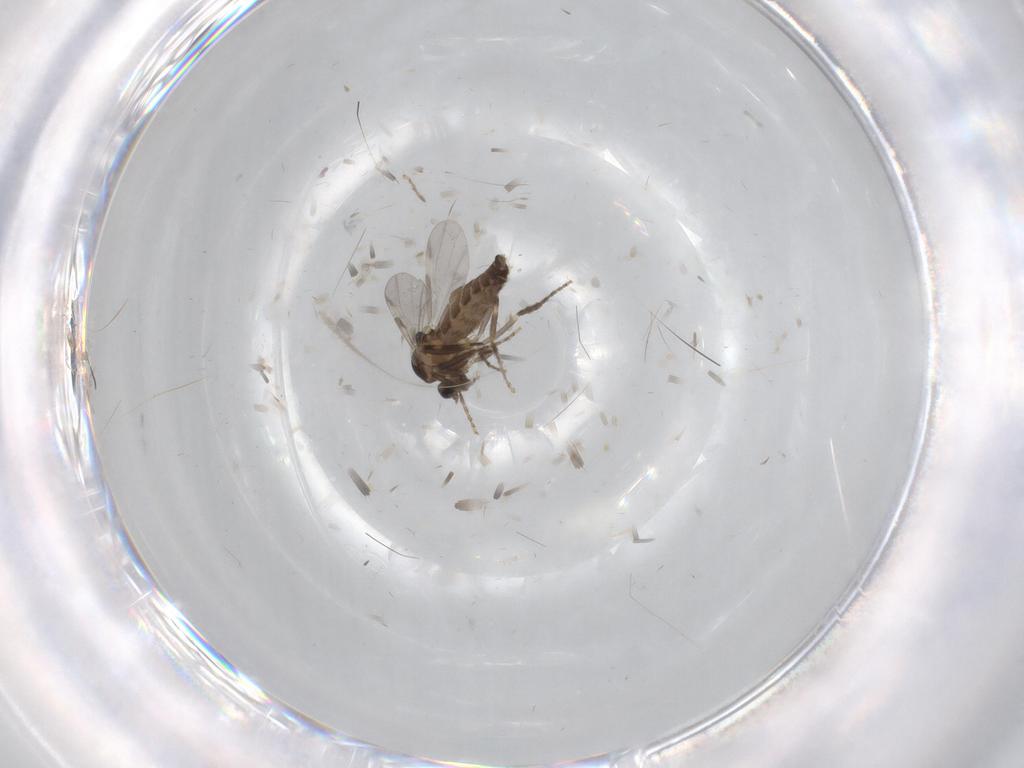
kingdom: Animalia
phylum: Arthropoda
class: Insecta
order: Diptera
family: Ceratopogonidae
